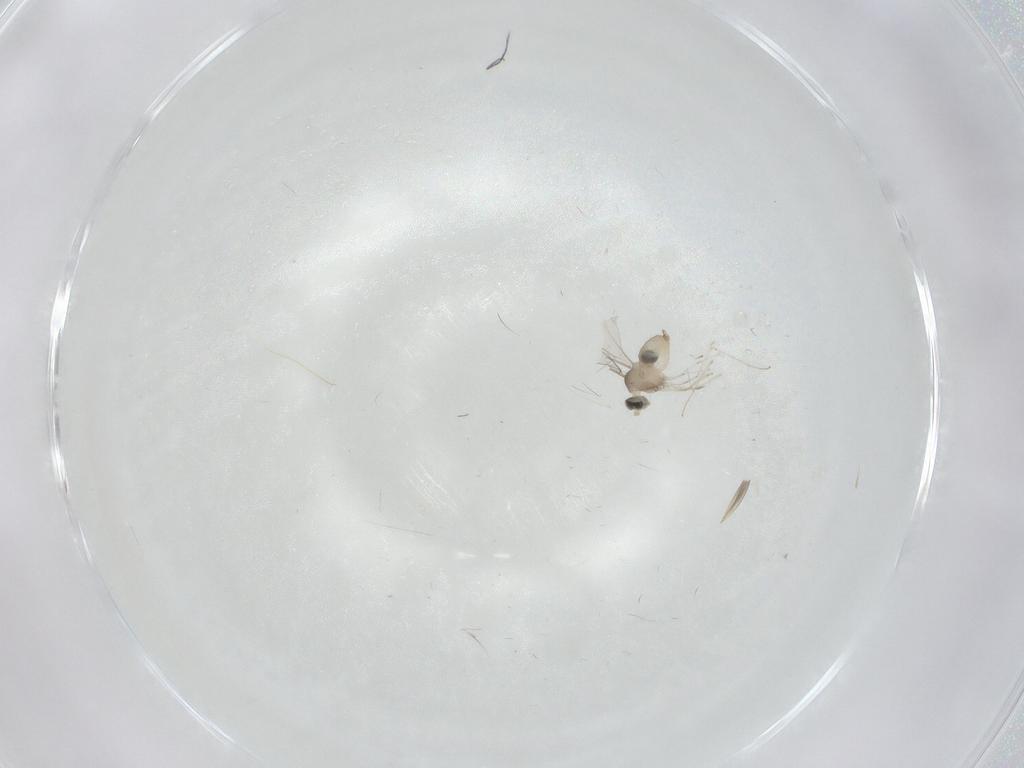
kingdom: Animalia
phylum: Arthropoda
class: Insecta
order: Diptera
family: Cecidomyiidae
